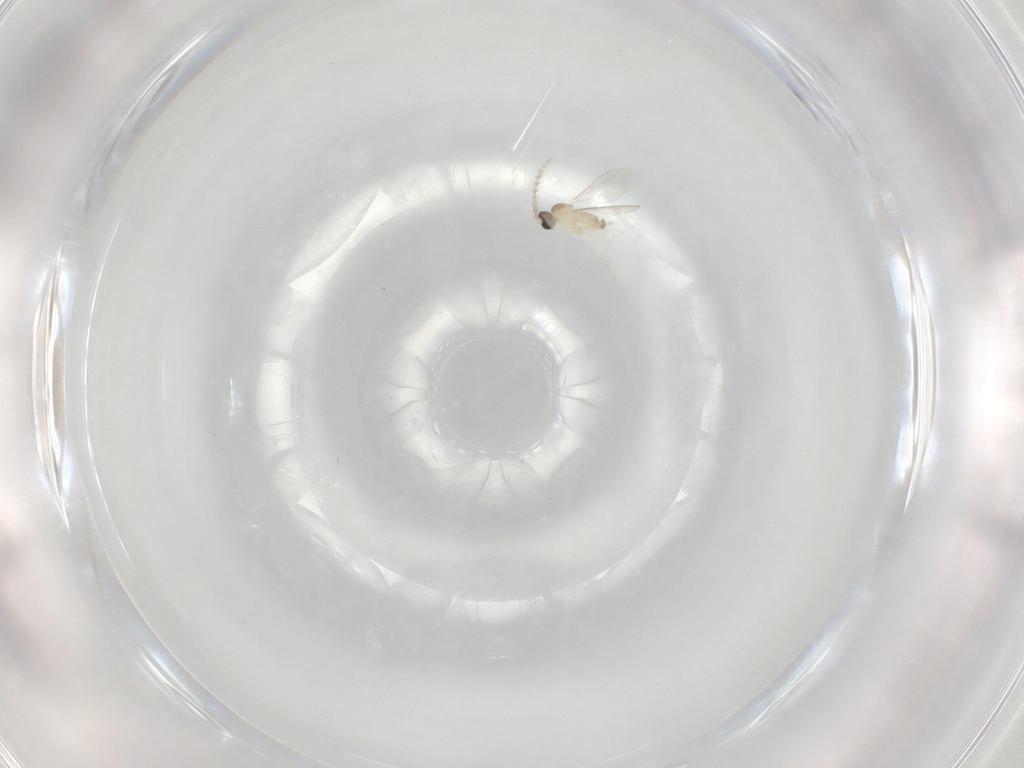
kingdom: Animalia
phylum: Arthropoda
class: Insecta
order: Diptera
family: Cecidomyiidae
